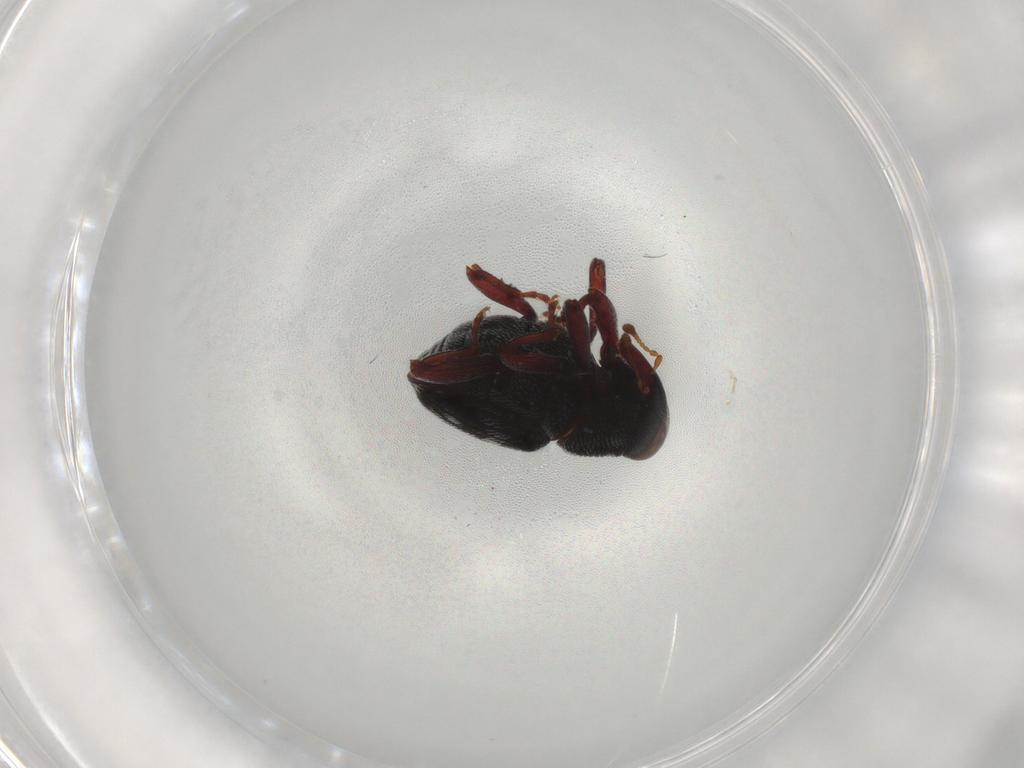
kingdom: Animalia
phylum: Arthropoda
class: Insecta
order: Coleoptera
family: Curculionidae
